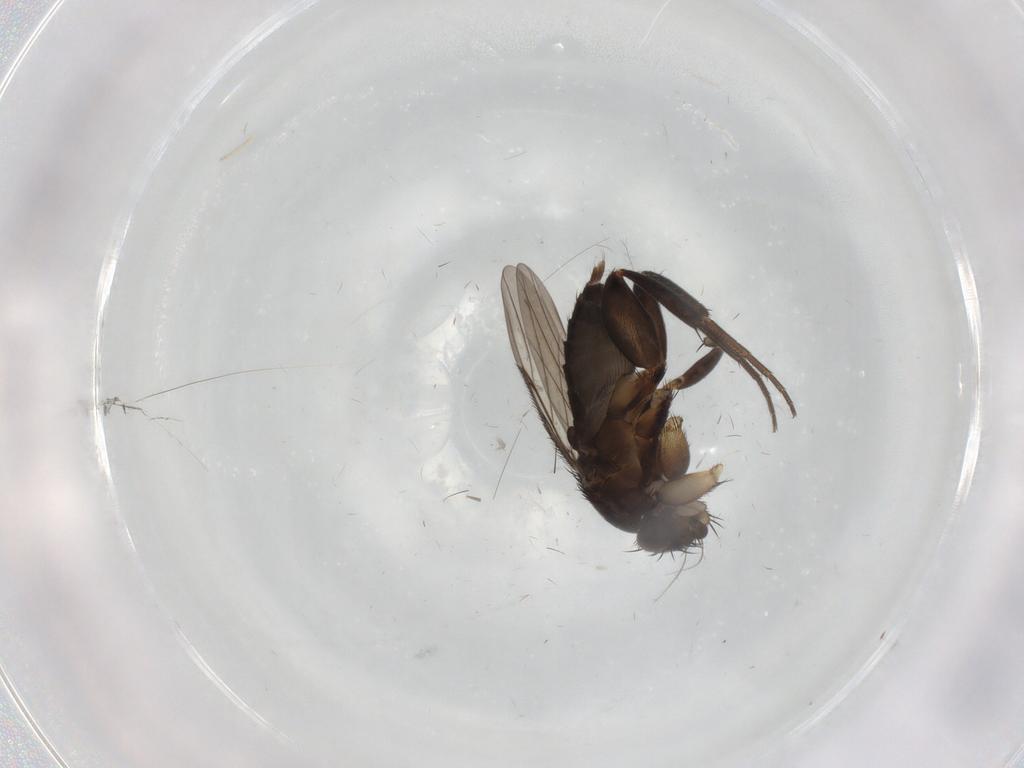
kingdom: Animalia
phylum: Arthropoda
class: Insecta
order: Diptera
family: Phoridae
